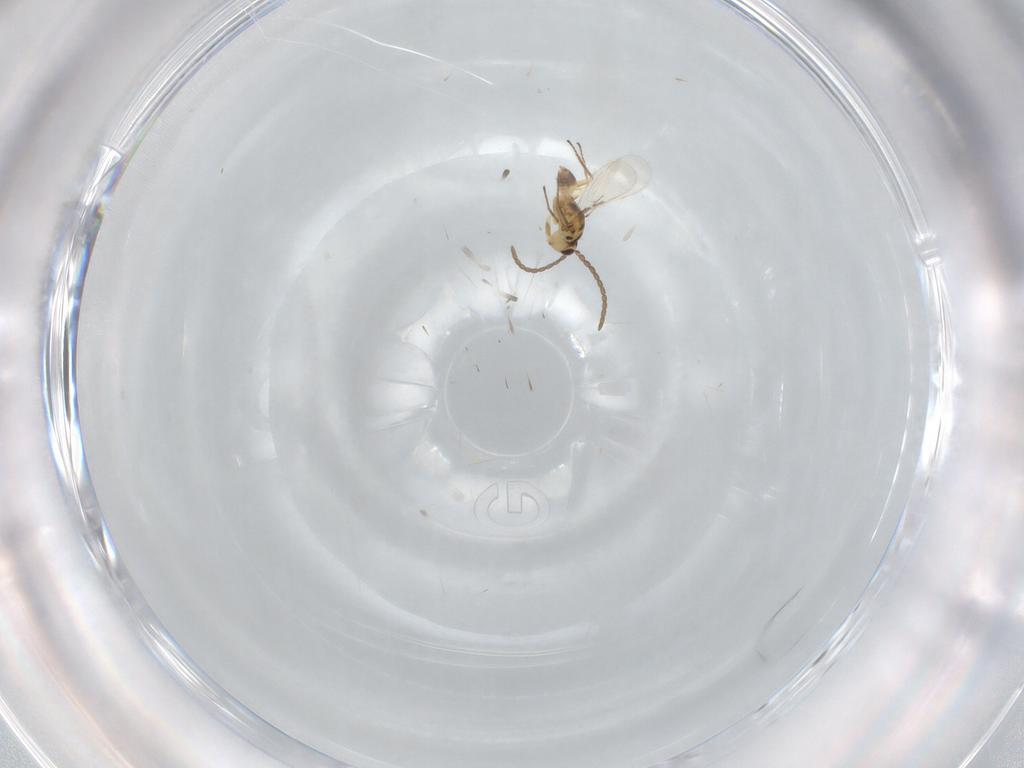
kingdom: Animalia
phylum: Arthropoda
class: Insecta
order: Hymenoptera
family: Mymaridae
